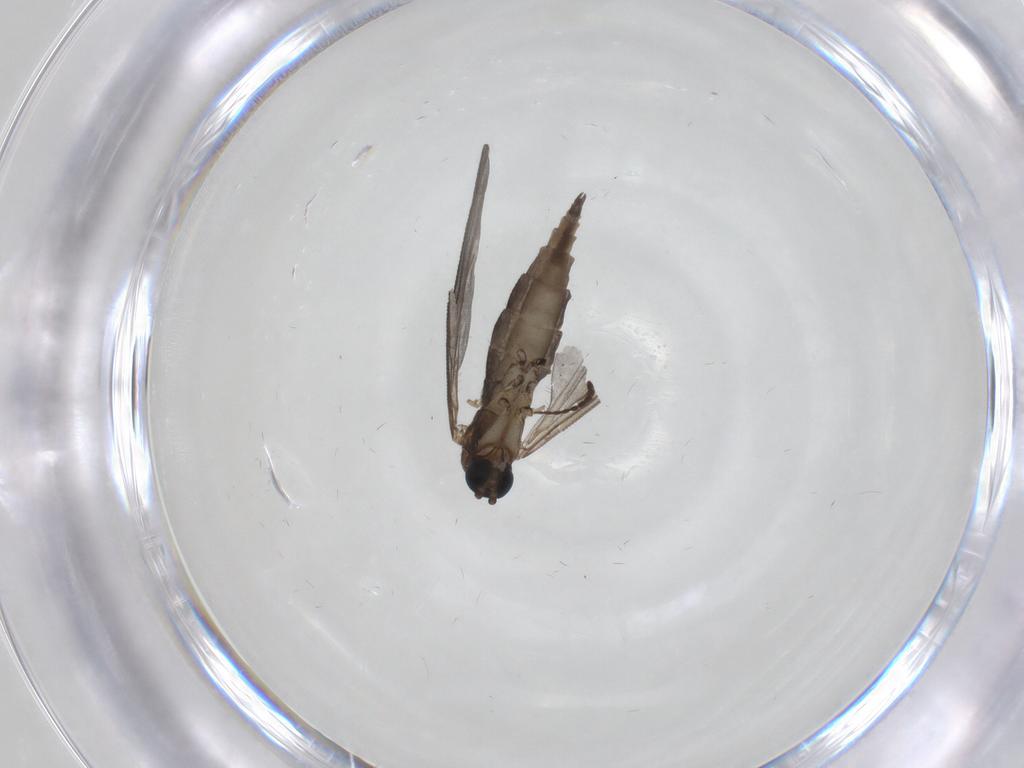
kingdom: Animalia
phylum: Arthropoda
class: Insecta
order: Diptera
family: Sciaridae
